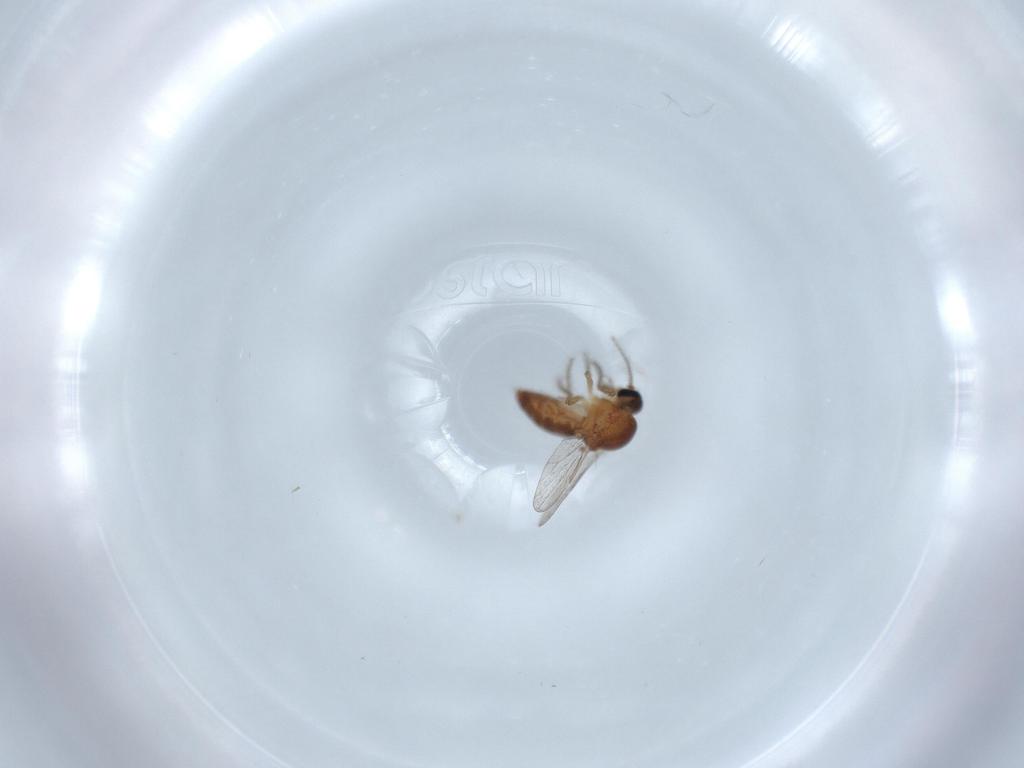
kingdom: Animalia
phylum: Arthropoda
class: Insecta
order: Diptera
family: Ceratopogonidae
